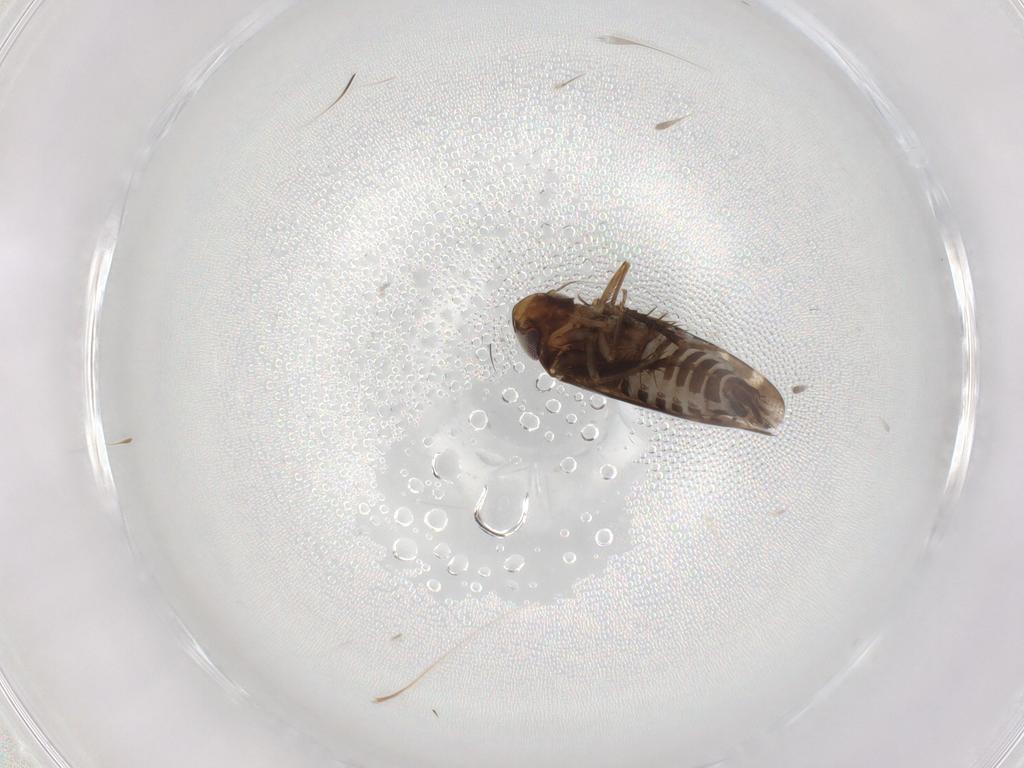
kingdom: Animalia
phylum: Arthropoda
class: Insecta
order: Hemiptera
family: Cicadellidae
